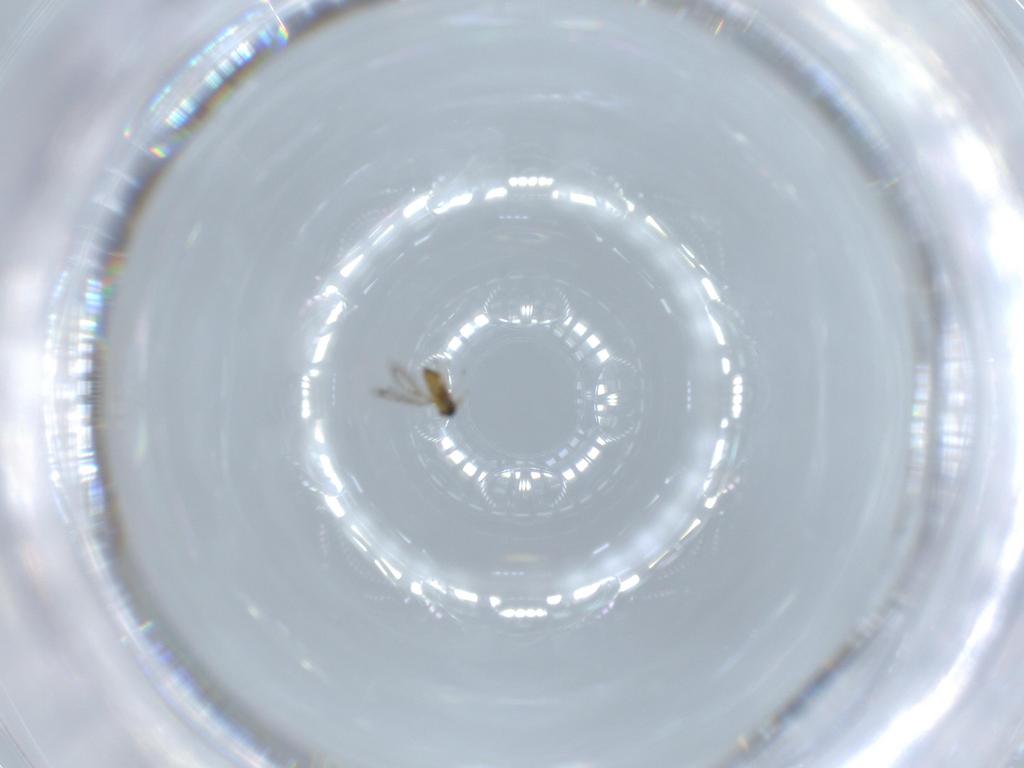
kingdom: Animalia
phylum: Arthropoda
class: Insecta
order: Hymenoptera
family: Trichogrammatidae
